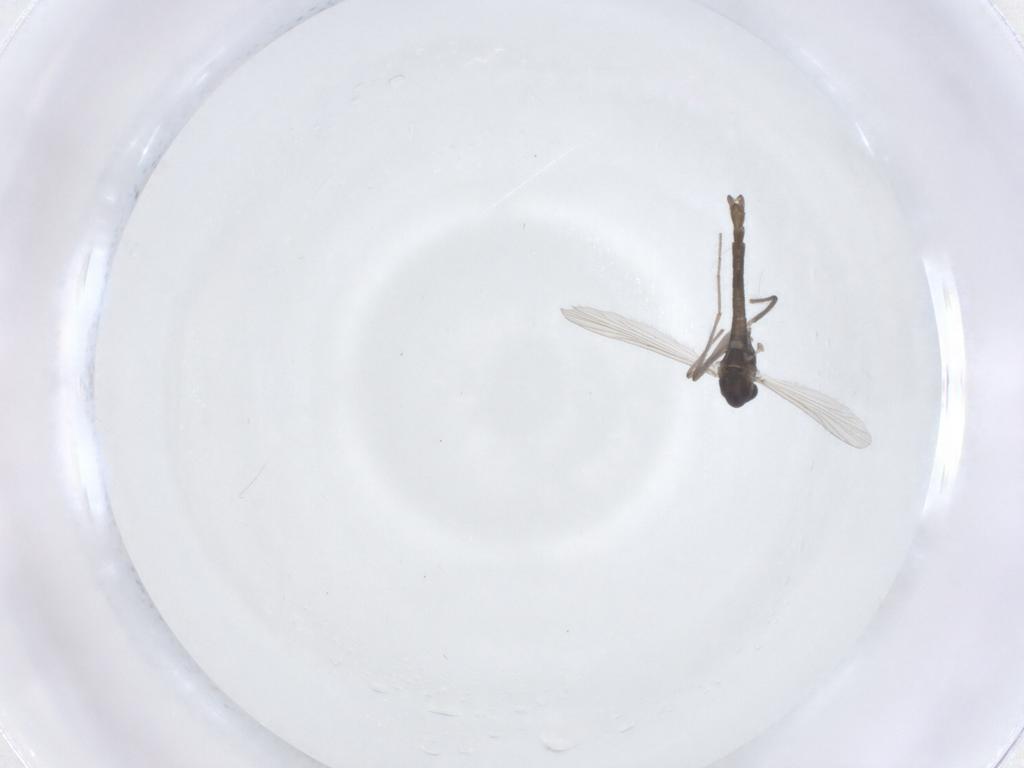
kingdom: Animalia
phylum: Arthropoda
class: Insecta
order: Diptera
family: Chironomidae
